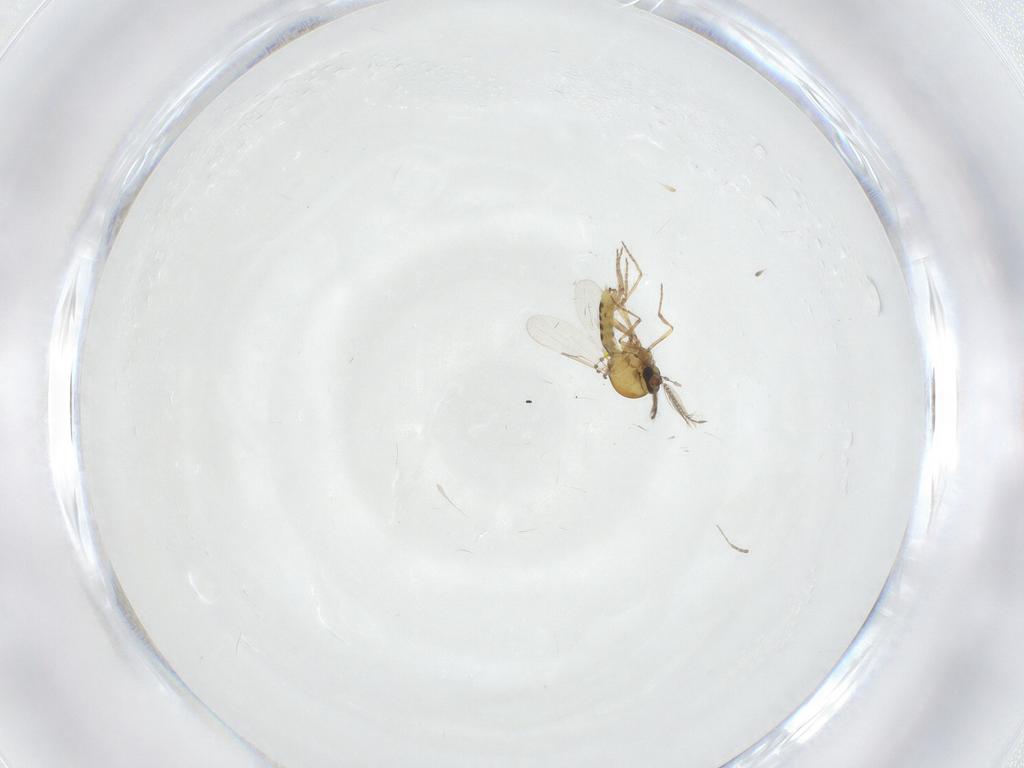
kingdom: Animalia
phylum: Arthropoda
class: Insecta
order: Diptera
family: Ceratopogonidae
